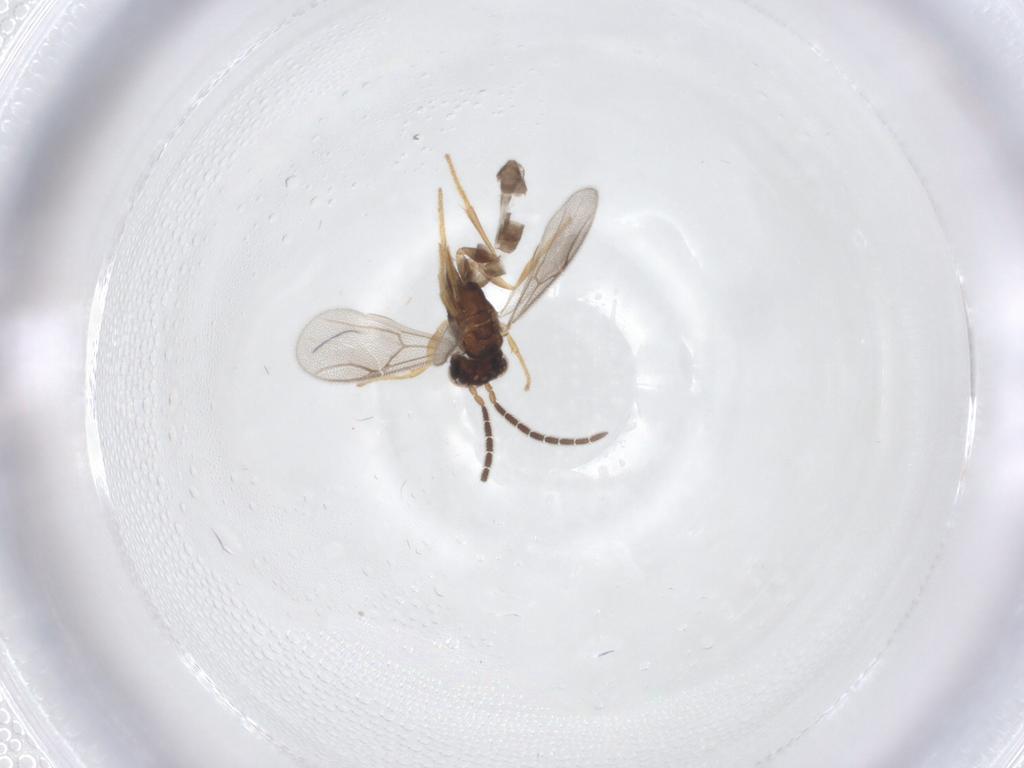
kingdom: Animalia
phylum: Arthropoda
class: Insecta
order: Hymenoptera
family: Dryinidae
